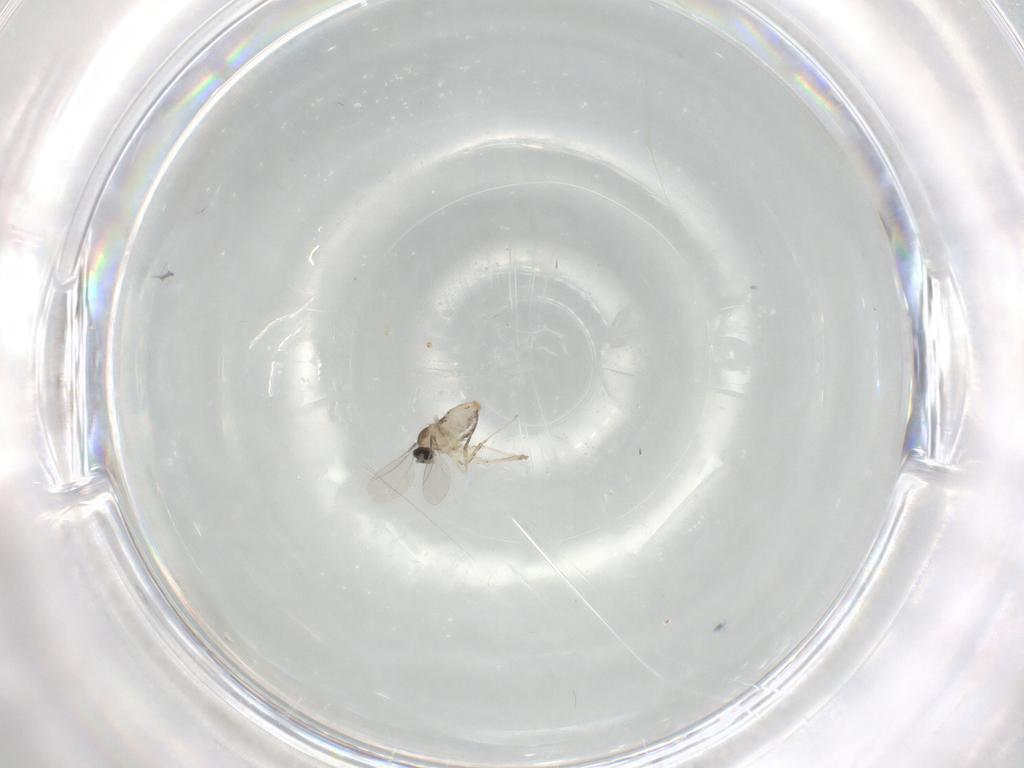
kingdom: Animalia
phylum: Arthropoda
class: Insecta
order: Diptera
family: Cecidomyiidae
